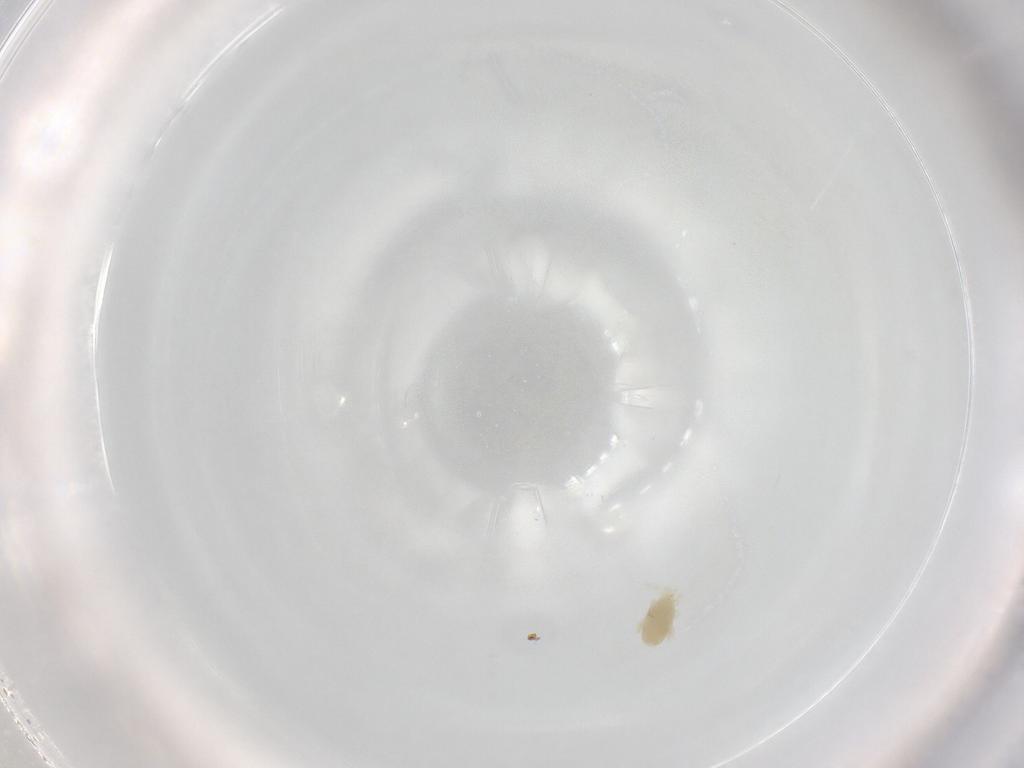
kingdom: Animalia
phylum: Arthropoda
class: Arachnida
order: Trombidiformes
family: Eupodidae
